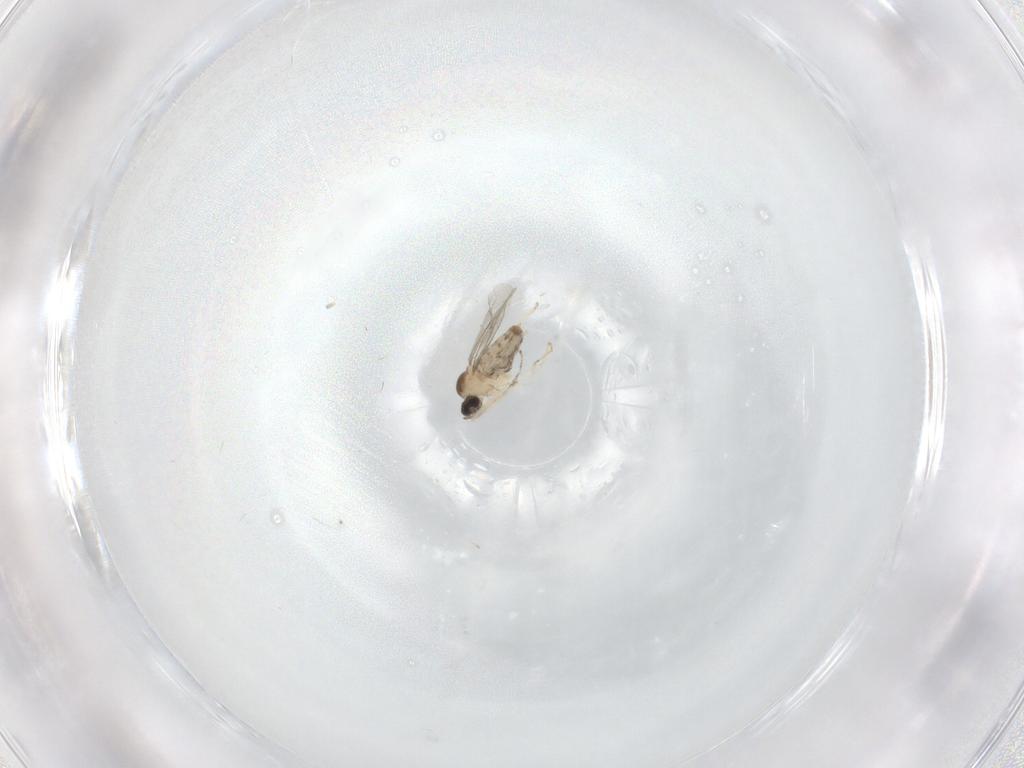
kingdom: Animalia
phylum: Arthropoda
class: Insecta
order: Diptera
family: Cecidomyiidae
